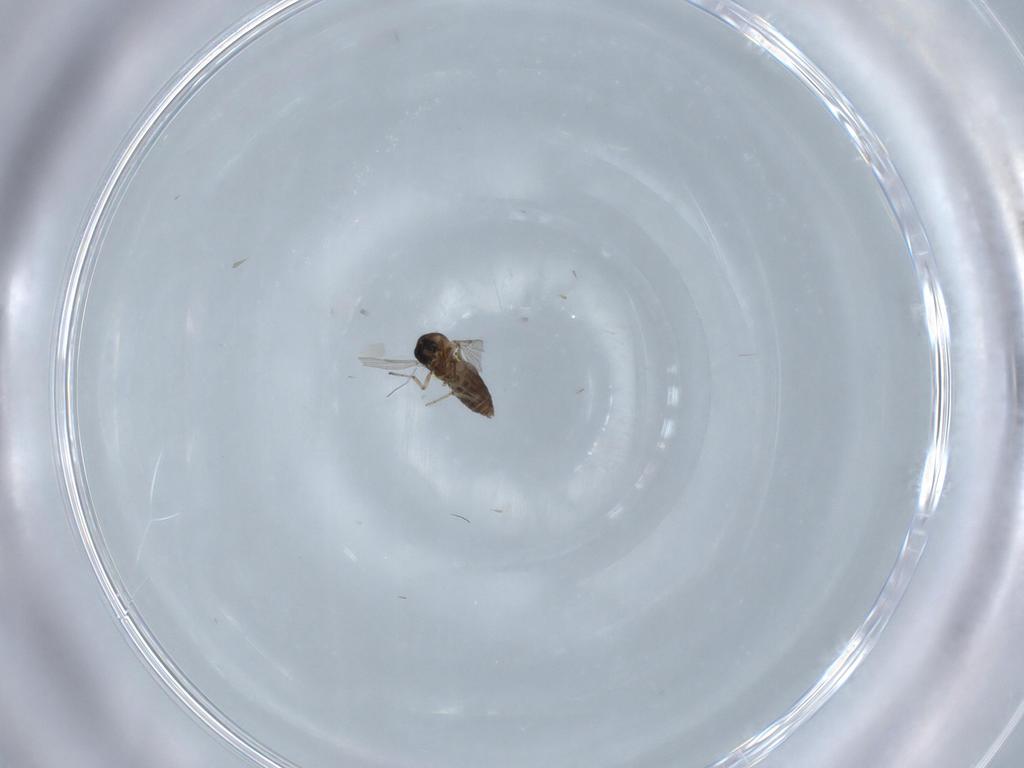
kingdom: Animalia
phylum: Arthropoda
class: Insecta
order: Diptera
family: Ceratopogonidae
